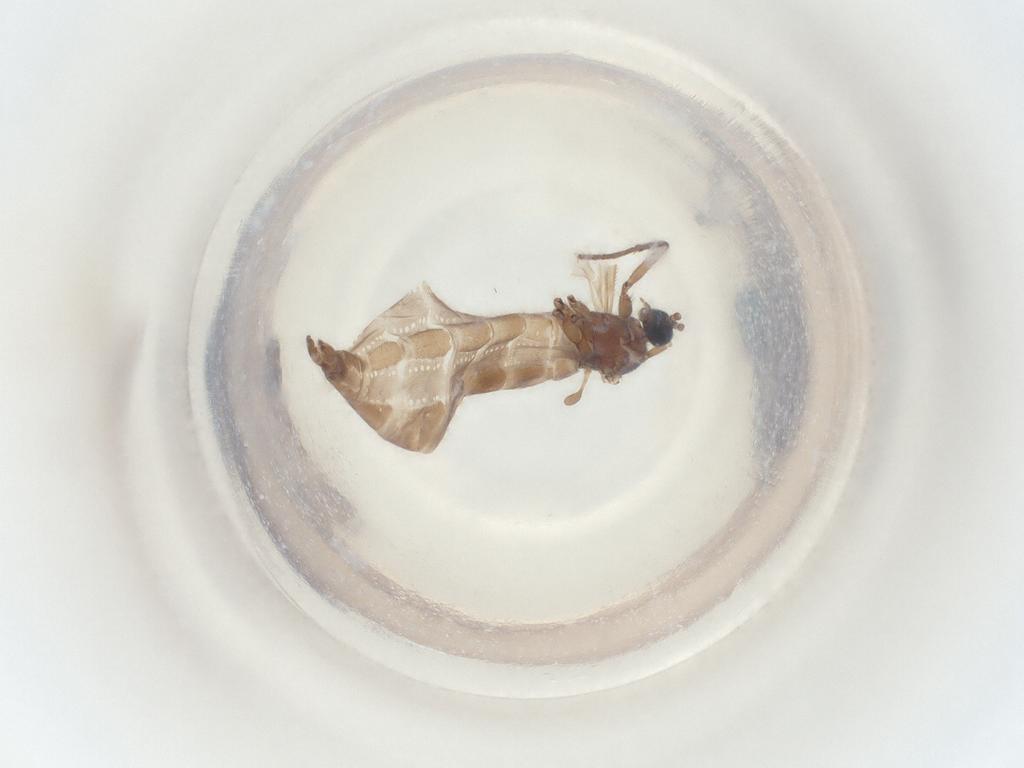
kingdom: Animalia
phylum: Arthropoda
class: Insecta
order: Diptera
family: Sciaridae
